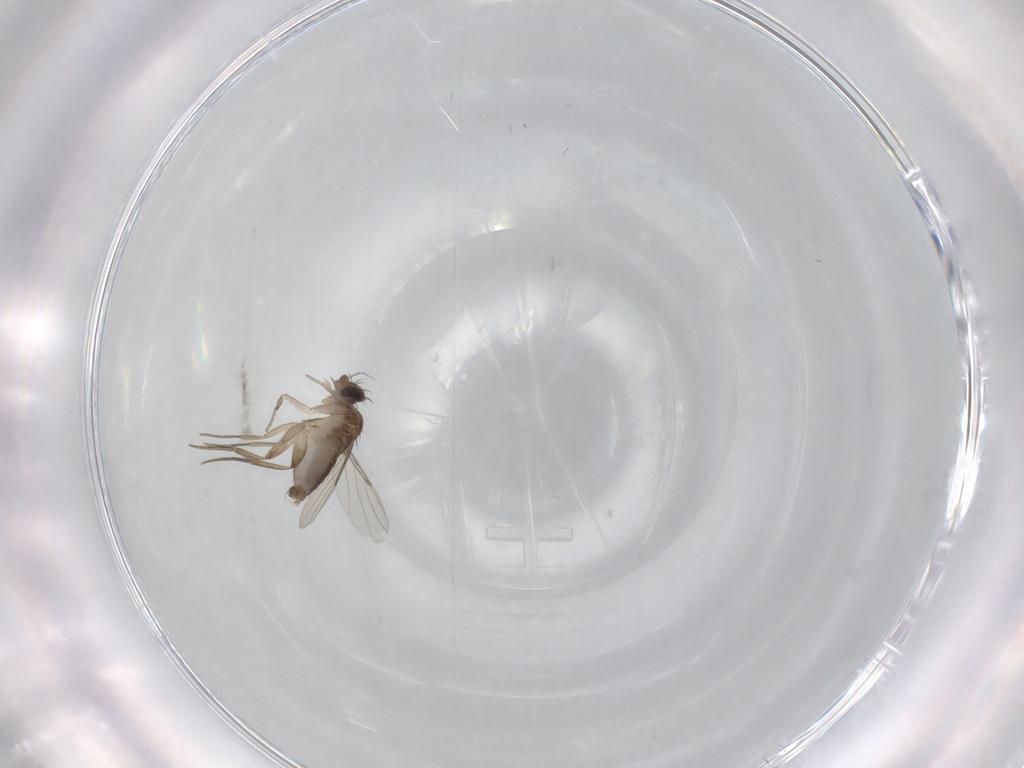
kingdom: Animalia
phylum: Arthropoda
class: Insecta
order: Diptera
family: Phoridae
